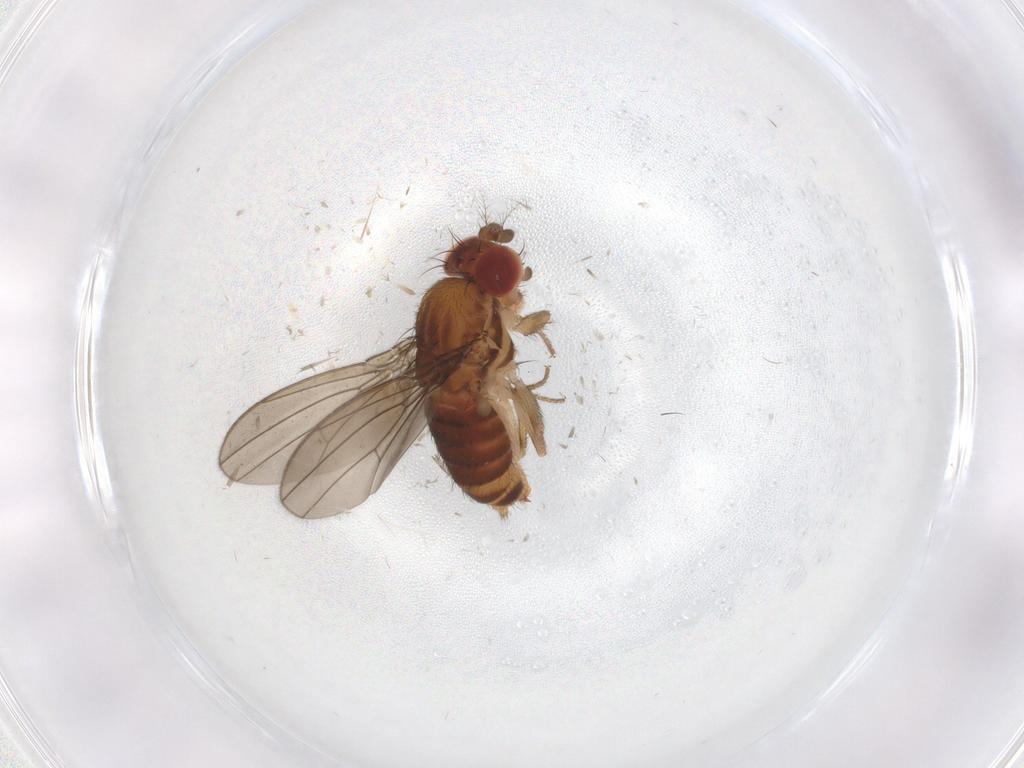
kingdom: Animalia
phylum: Arthropoda
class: Insecta
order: Diptera
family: Drosophilidae
